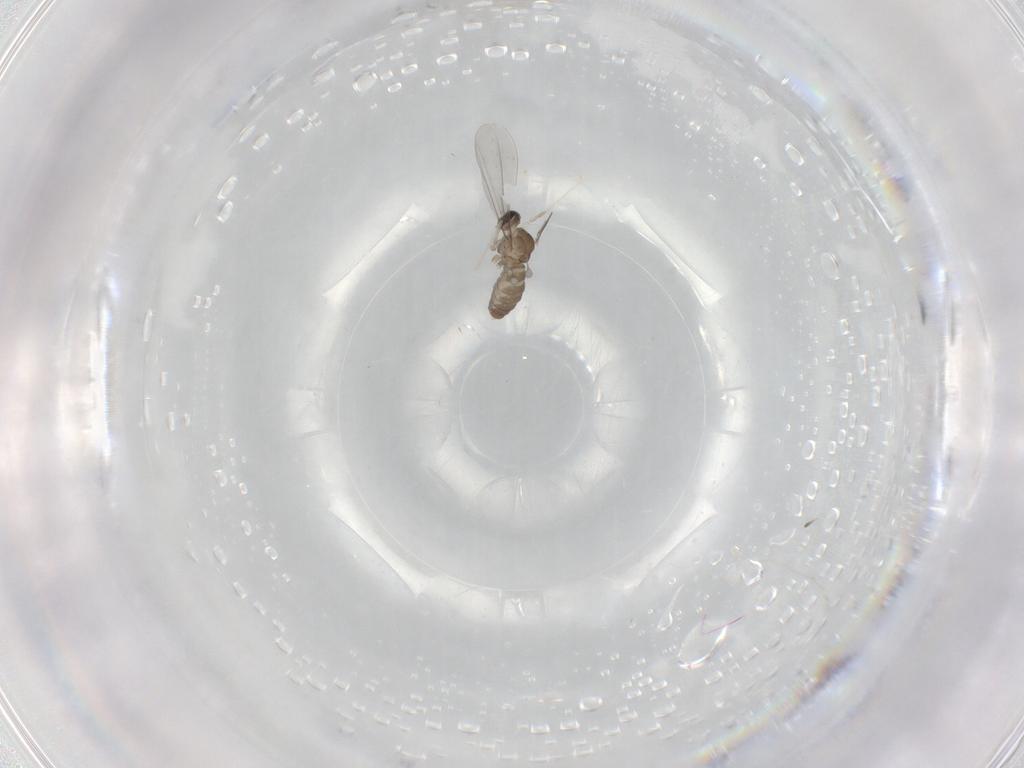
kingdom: Animalia
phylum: Arthropoda
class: Insecta
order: Diptera
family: Cecidomyiidae
